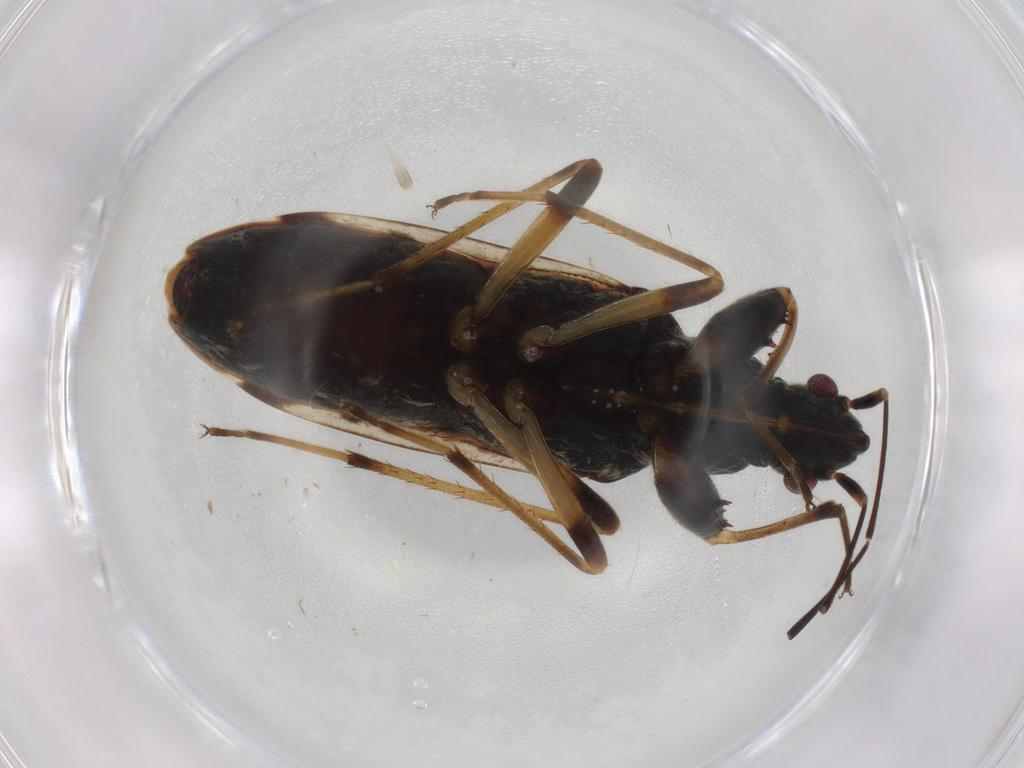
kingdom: Animalia
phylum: Arthropoda
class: Insecta
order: Hemiptera
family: Rhyparochromidae
